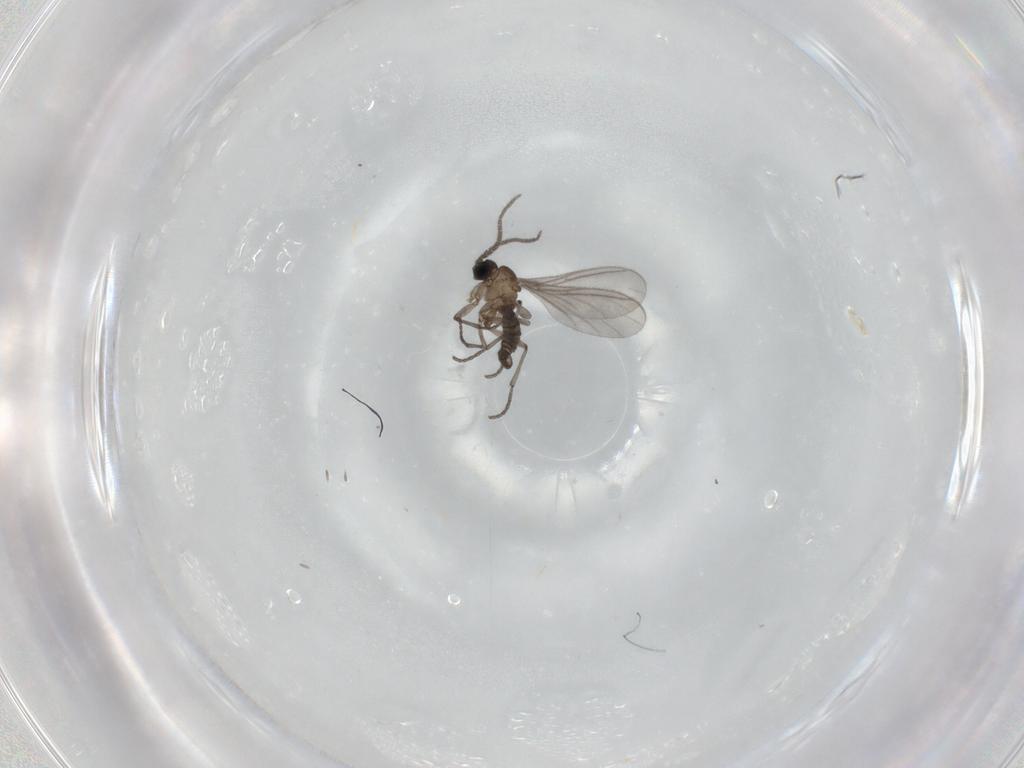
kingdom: Animalia
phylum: Arthropoda
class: Insecta
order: Diptera
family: Sciaridae
